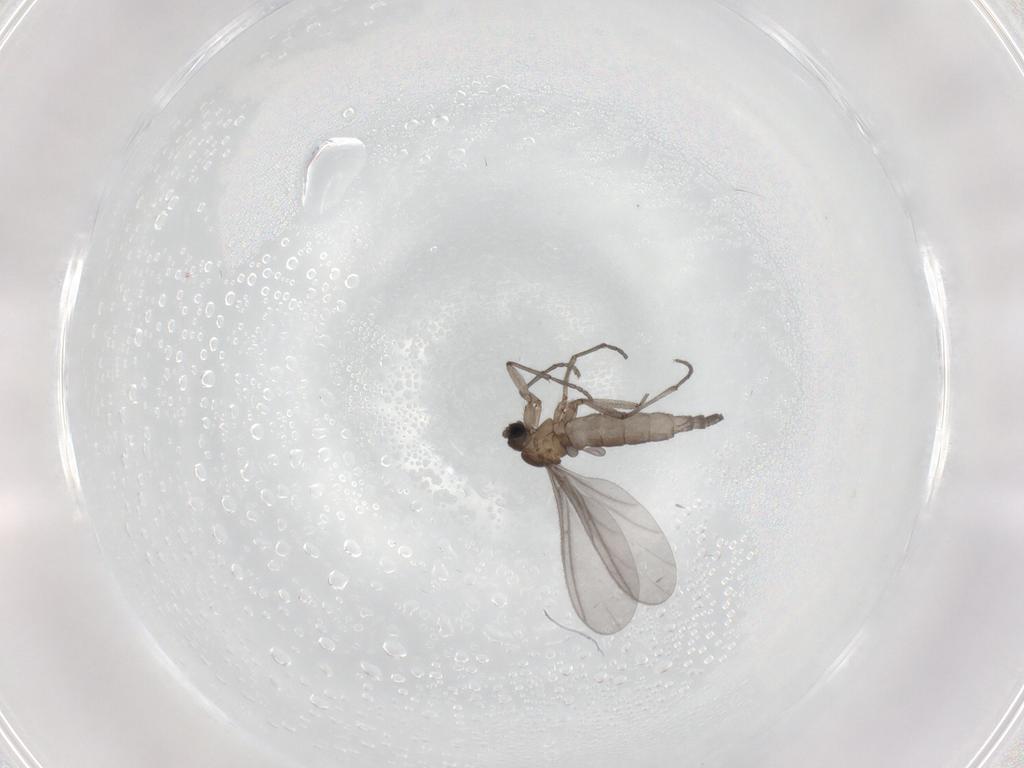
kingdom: Animalia
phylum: Arthropoda
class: Insecta
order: Diptera
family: Sciaridae
